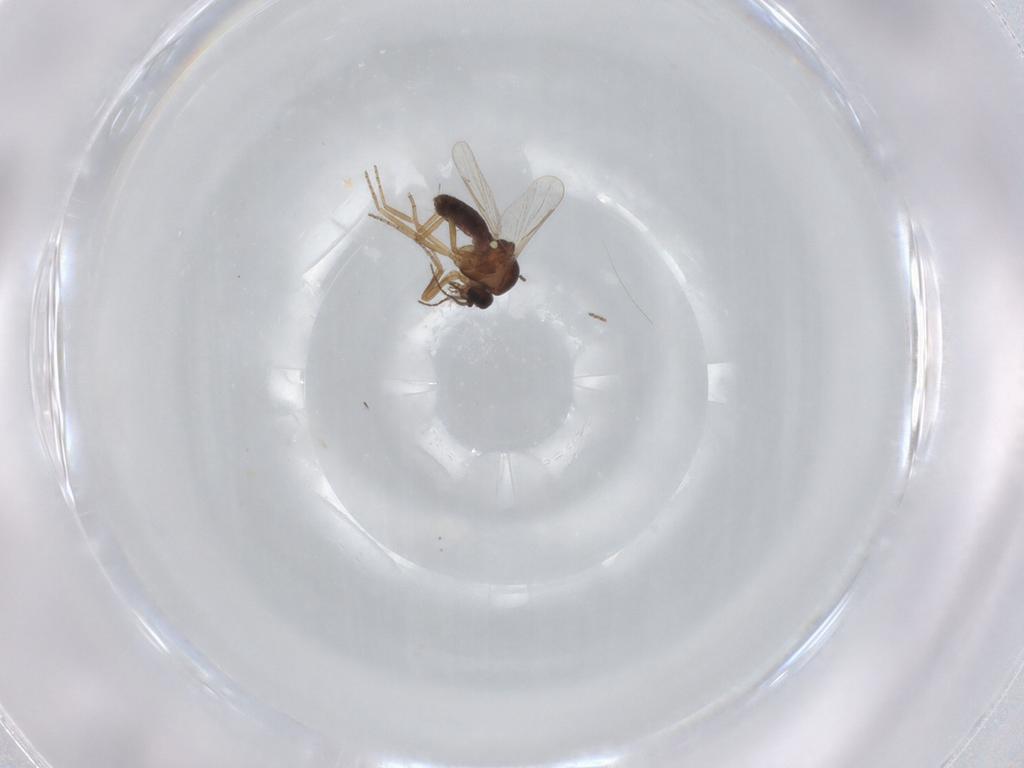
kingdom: Animalia
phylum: Arthropoda
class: Insecta
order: Diptera
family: Ceratopogonidae
